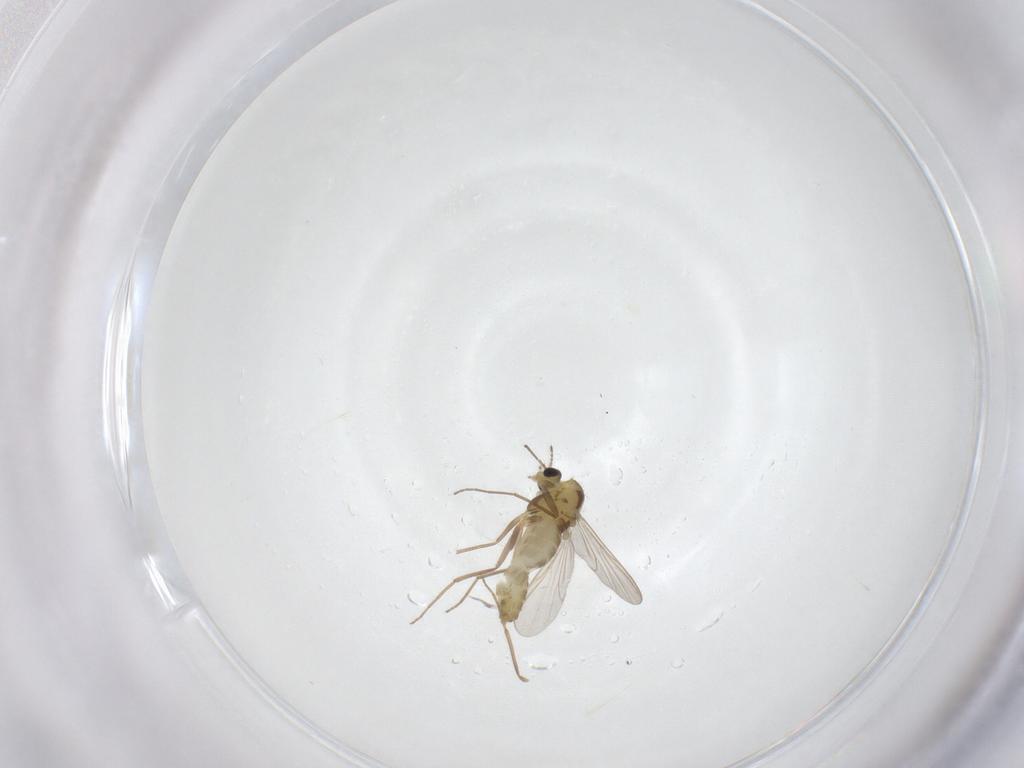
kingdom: Animalia
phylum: Arthropoda
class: Insecta
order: Diptera
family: Chironomidae
